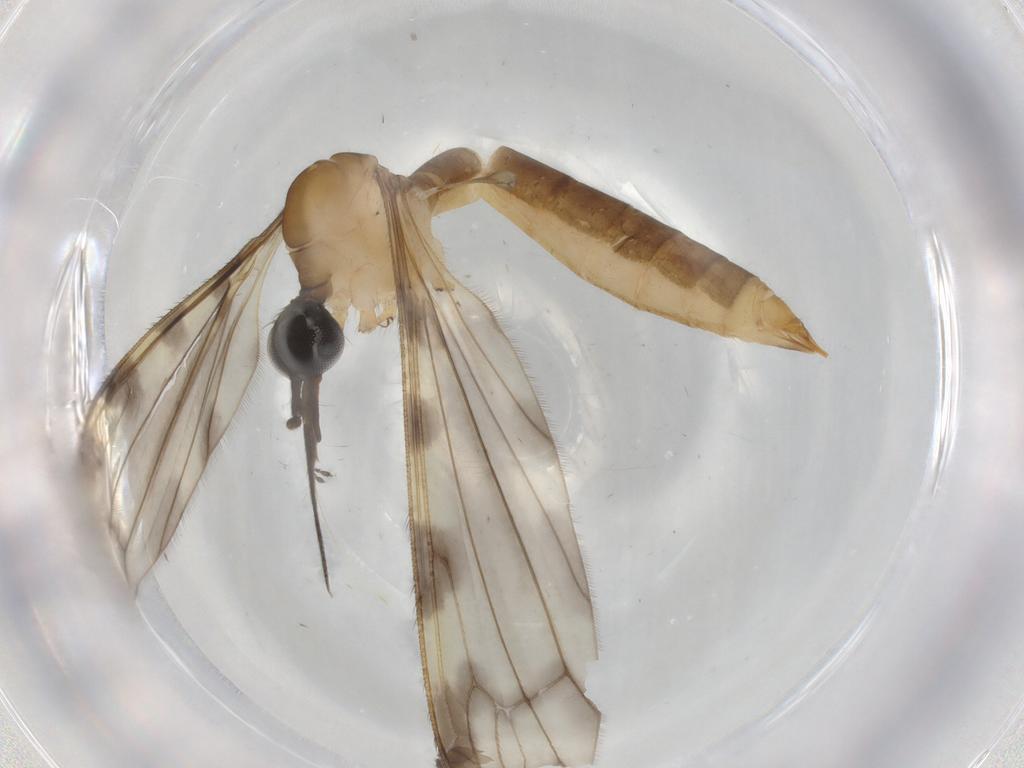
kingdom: Animalia
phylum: Arthropoda
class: Insecta
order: Diptera
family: Limoniidae
